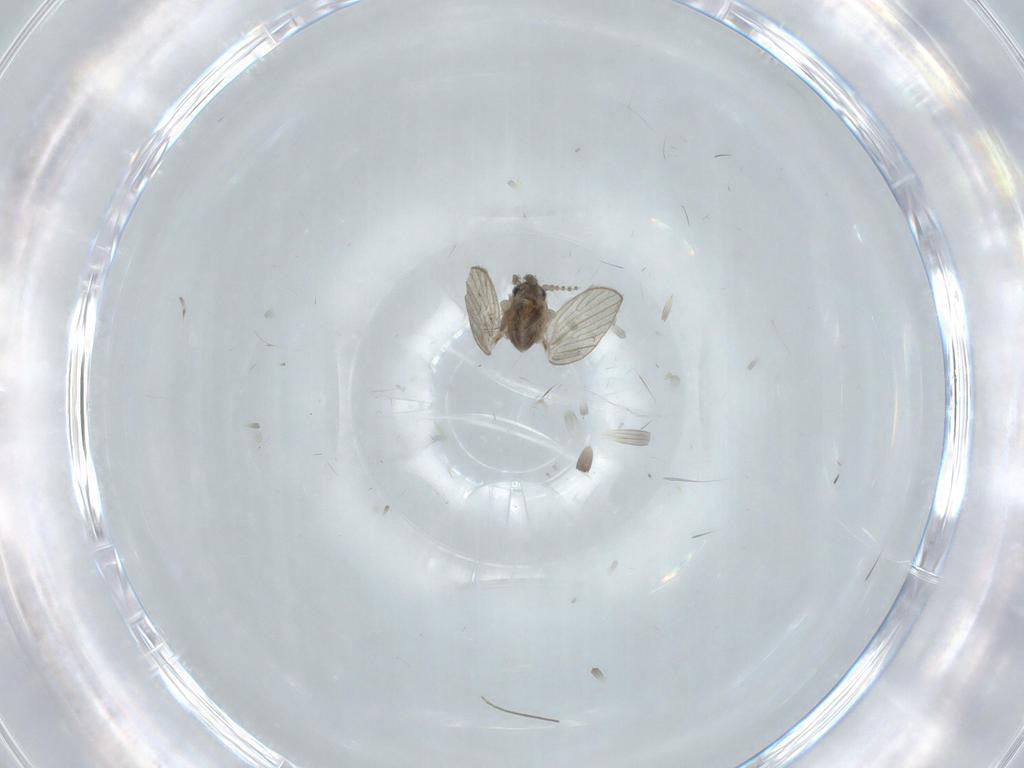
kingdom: Animalia
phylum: Arthropoda
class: Insecta
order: Diptera
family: Psychodidae
